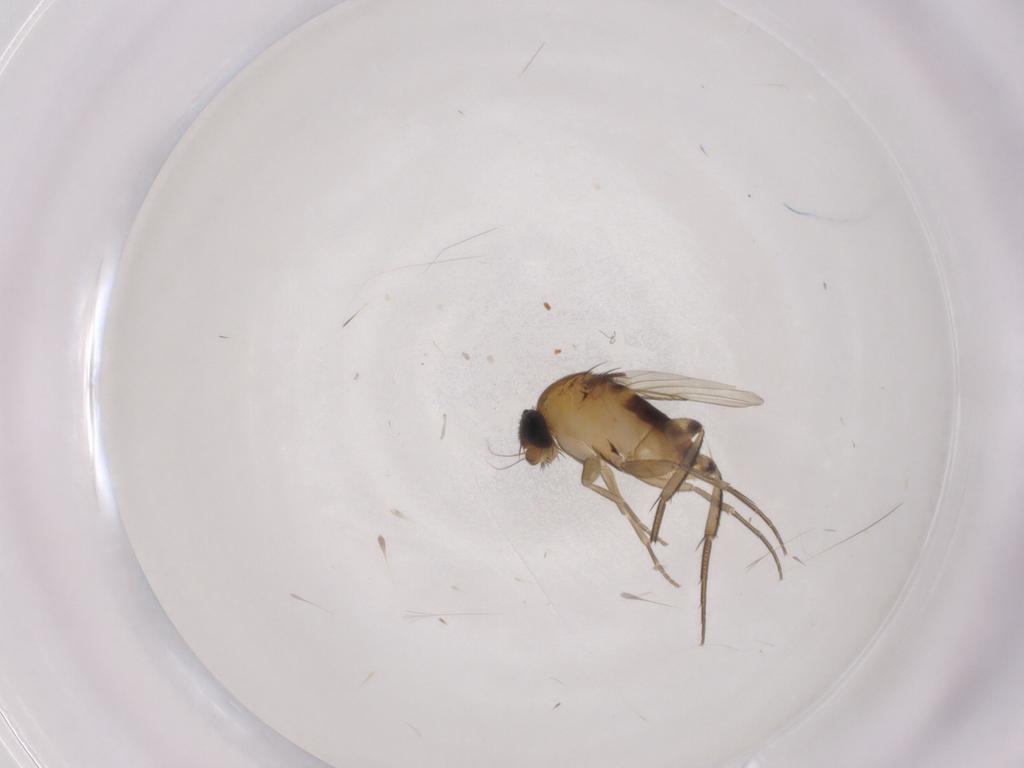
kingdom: Animalia
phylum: Arthropoda
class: Insecta
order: Diptera
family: Phoridae
